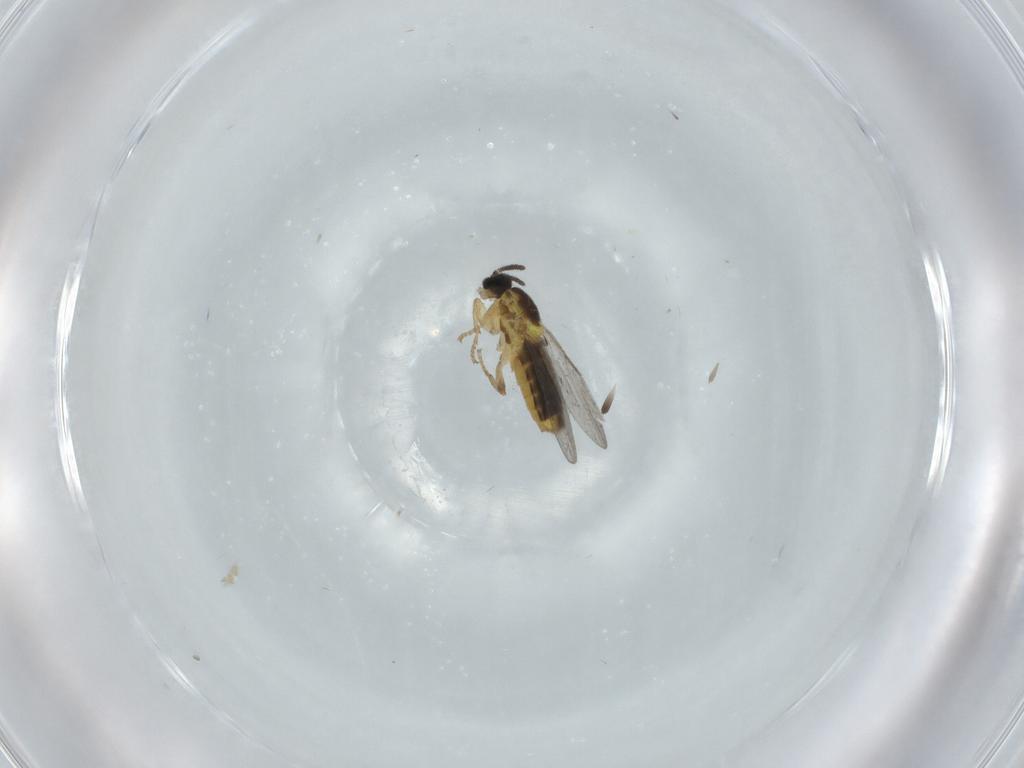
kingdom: Animalia
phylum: Arthropoda
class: Insecta
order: Diptera
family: Scatopsidae
